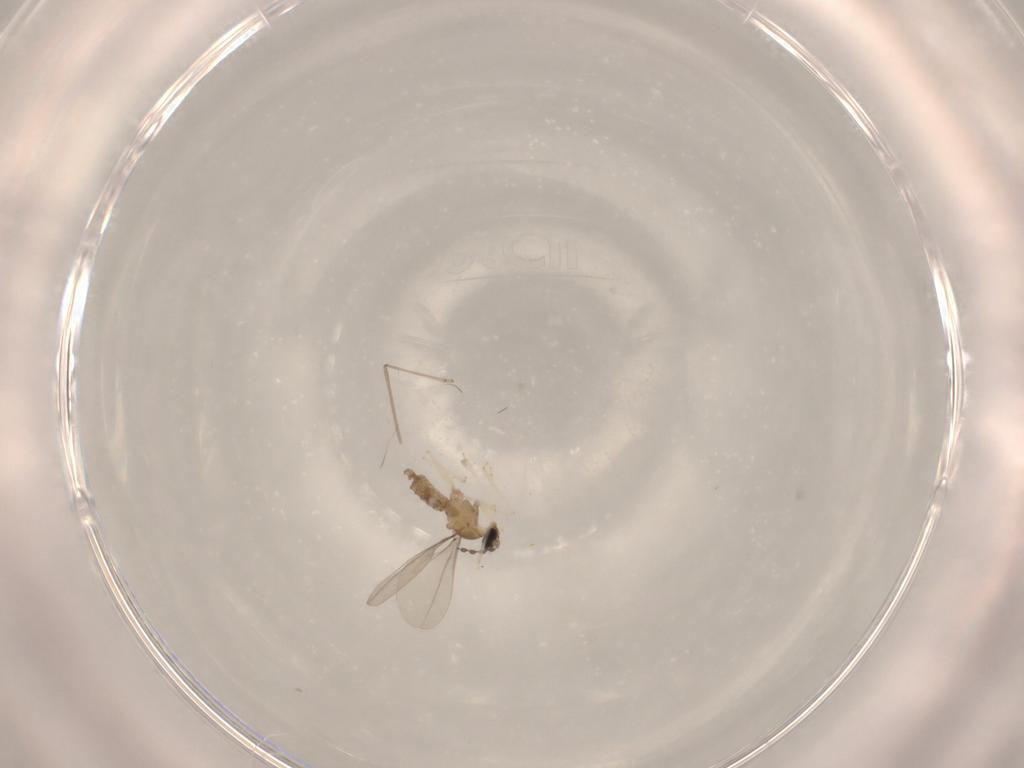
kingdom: Animalia
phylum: Arthropoda
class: Insecta
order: Diptera
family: Cecidomyiidae
